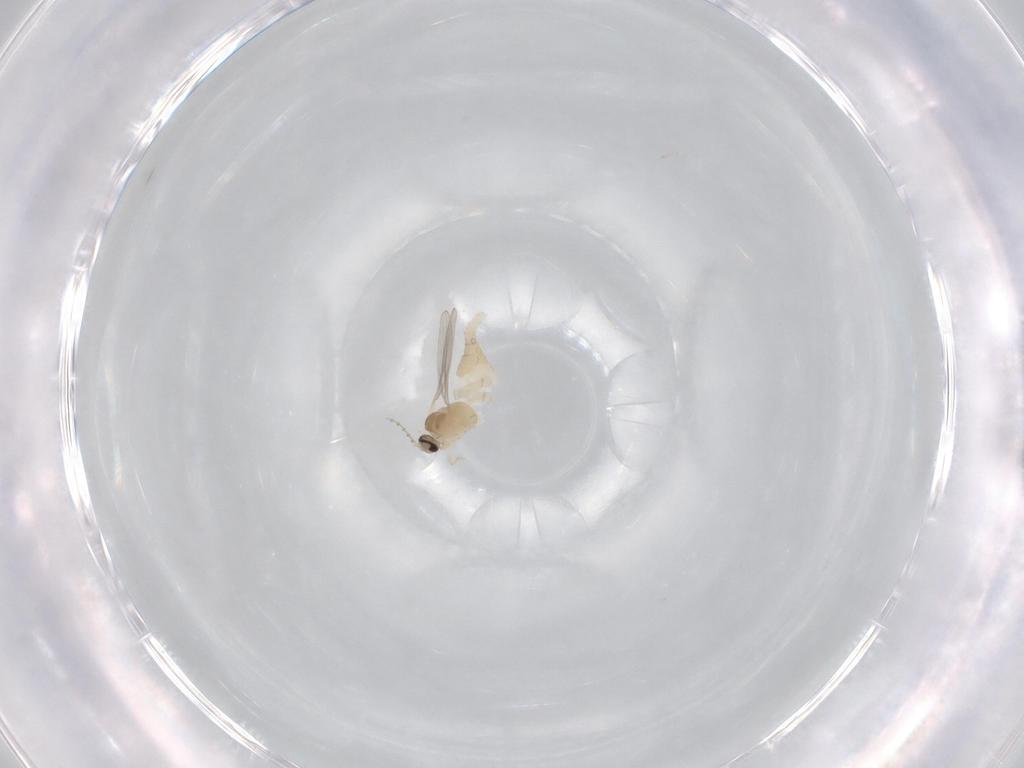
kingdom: Animalia
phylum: Arthropoda
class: Insecta
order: Diptera
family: Cecidomyiidae
